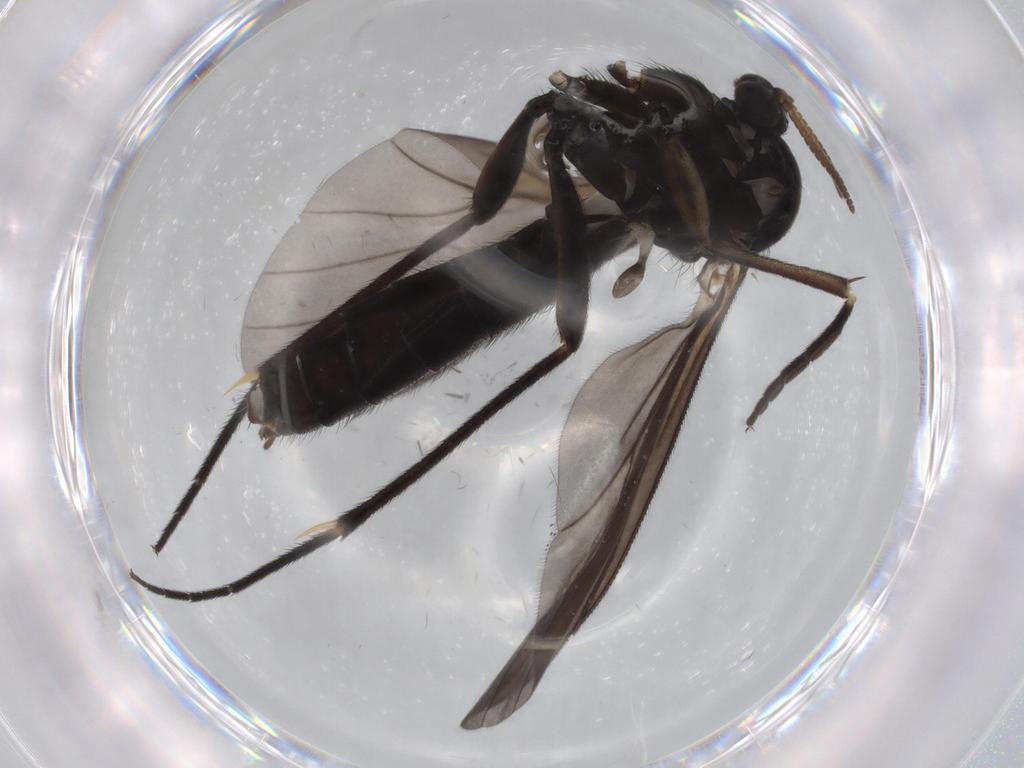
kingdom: Animalia
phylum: Arthropoda
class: Insecta
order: Diptera
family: Mycetophilidae
